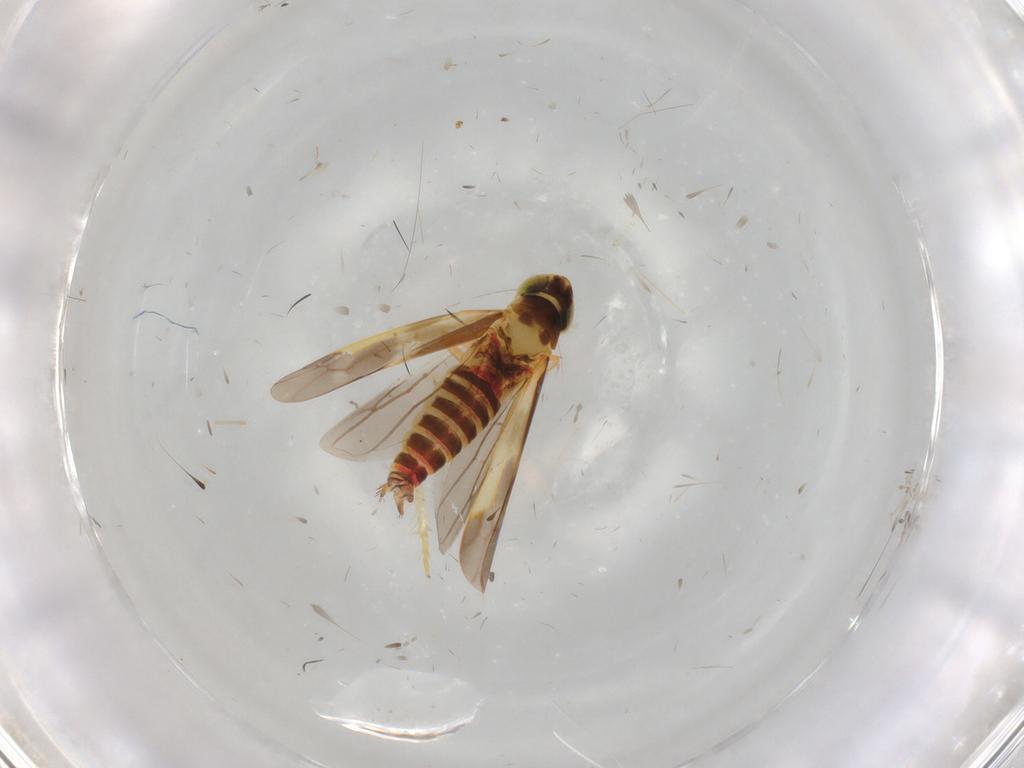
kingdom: Animalia
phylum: Arthropoda
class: Insecta
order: Hemiptera
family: Cicadellidae
